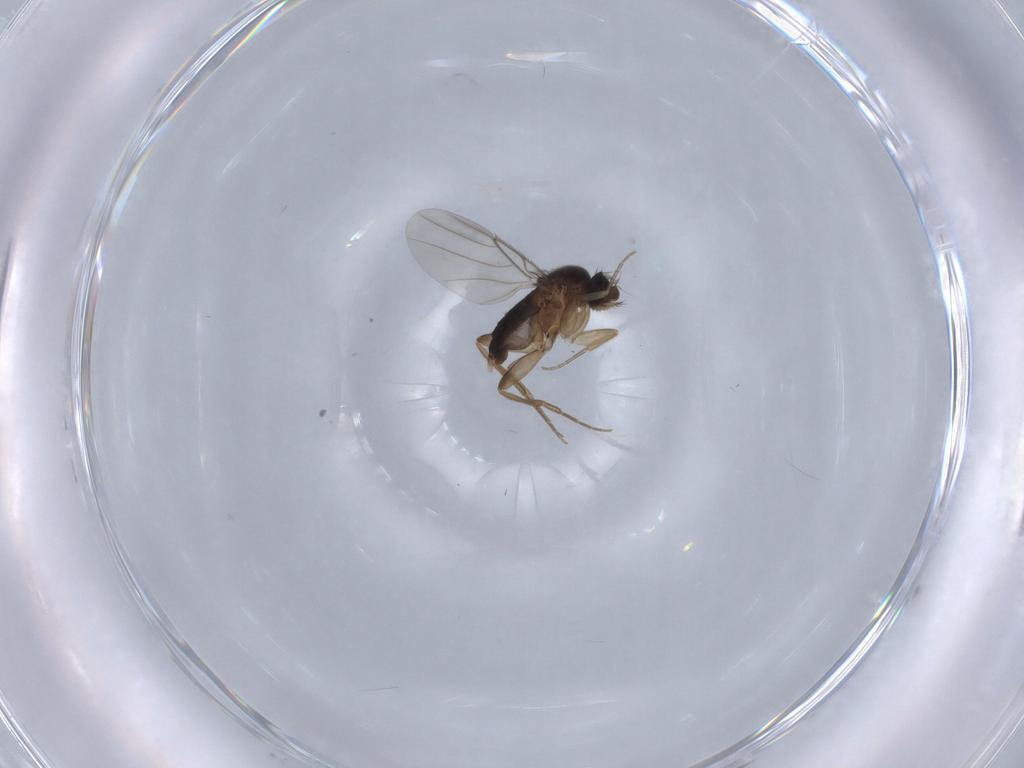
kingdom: Animalia
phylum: Arthropoda
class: Insecta
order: Diptera
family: Phoridae
